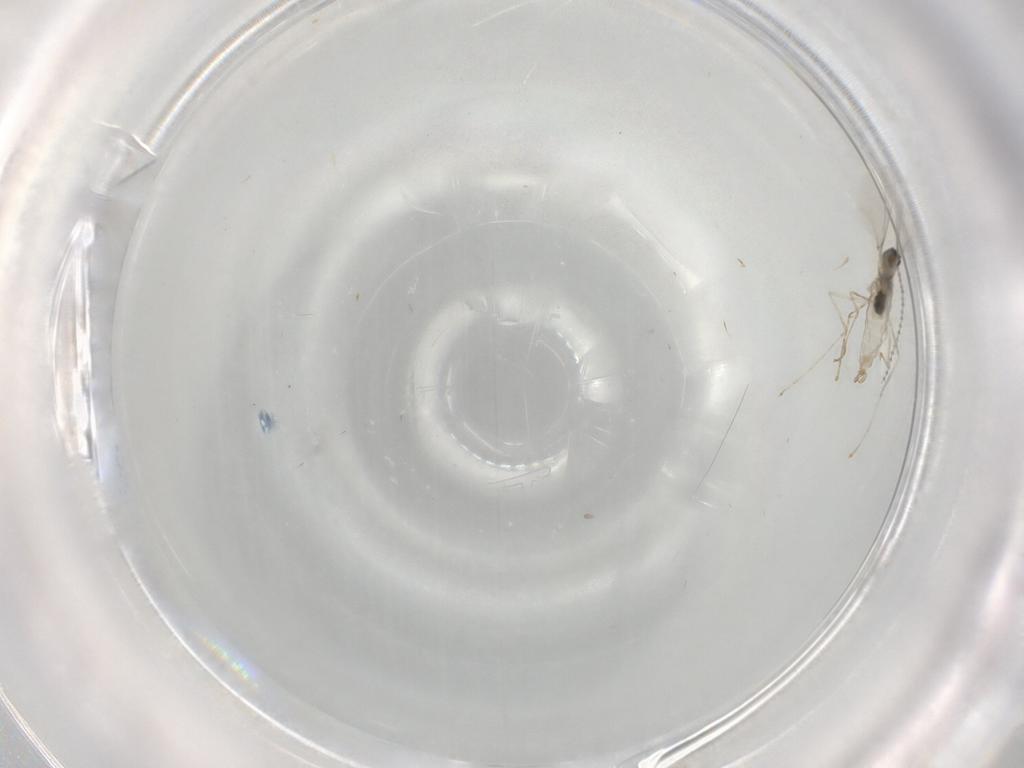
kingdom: Animalia
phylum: Arthropoda
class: Insecta
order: Diptera
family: Cecidomyiidae
